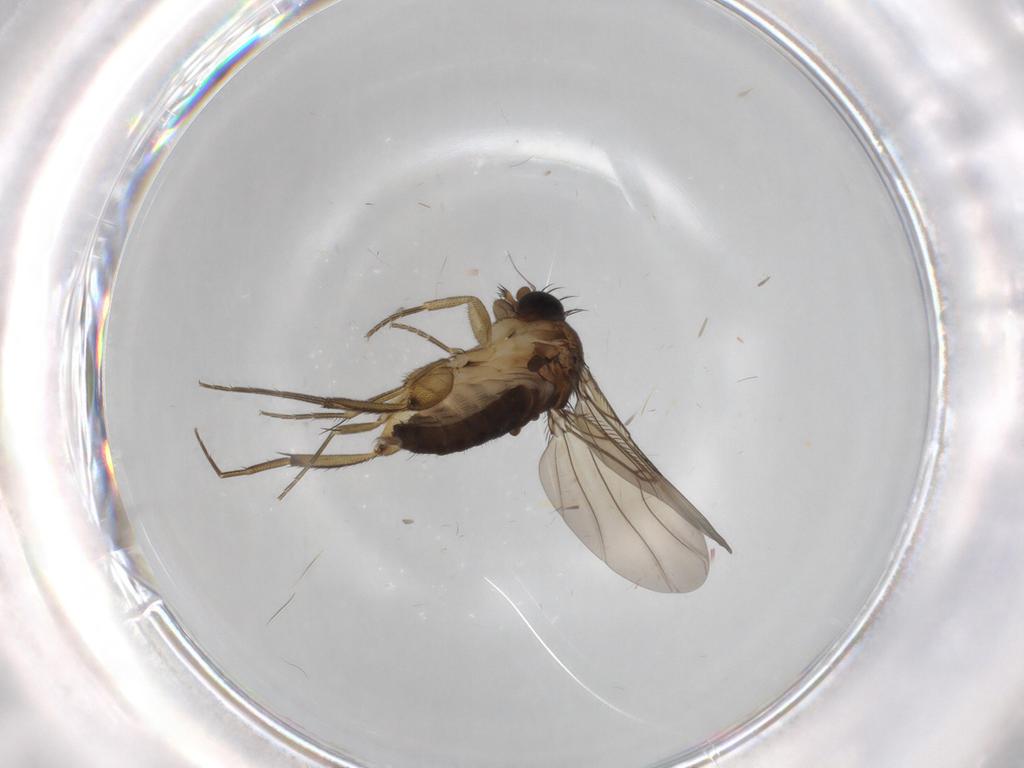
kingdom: Animalia
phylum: Arthropoda
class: Insecta
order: Diptera
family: Phoridae
